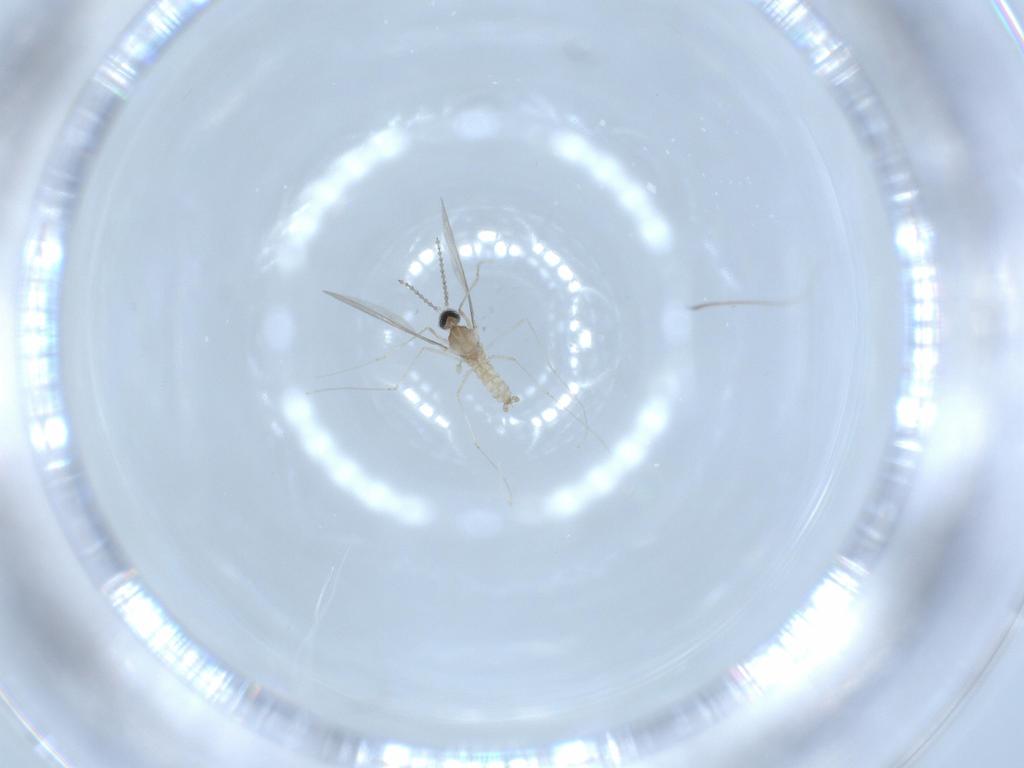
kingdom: Animalia
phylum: Arthropoda
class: Insecta
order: Diptera
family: Cecidomyiidae
